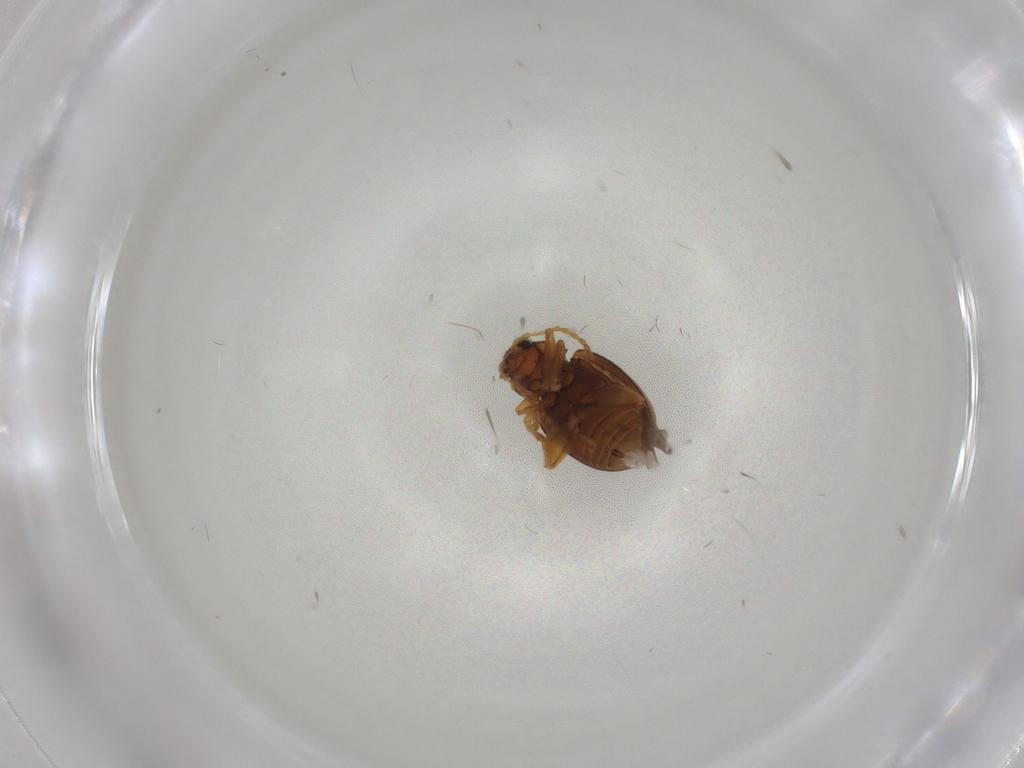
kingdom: Animalia
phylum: Arthropoda
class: Insecta
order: Coleoptera
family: Chrysomelidae
